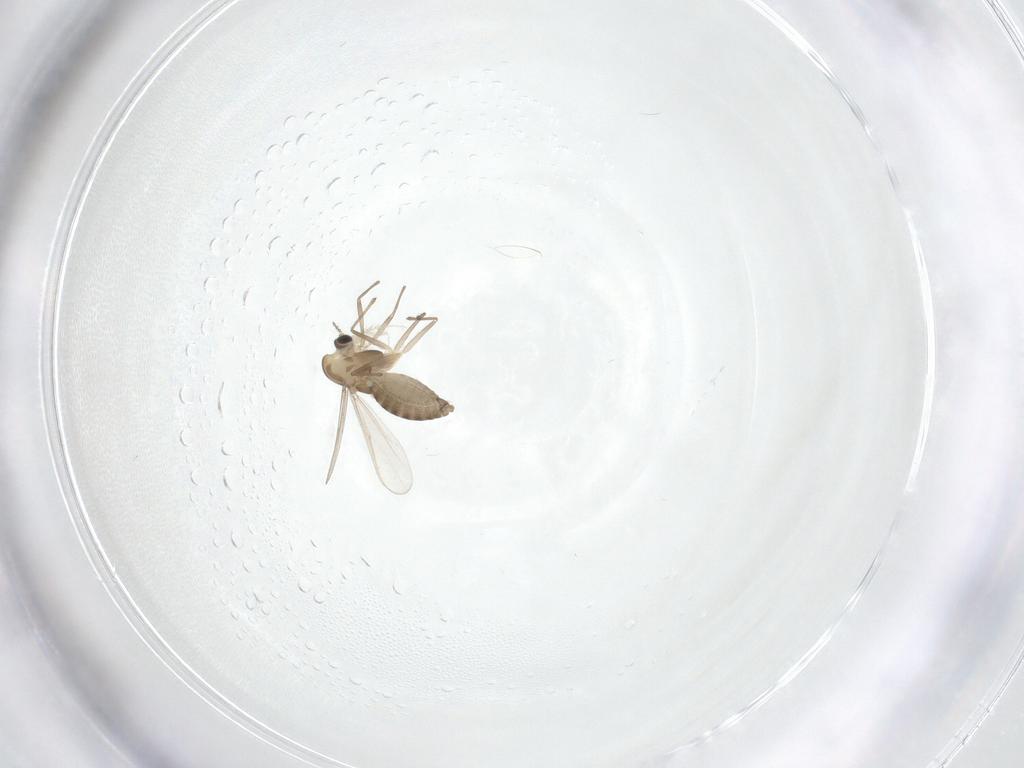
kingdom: Animalia
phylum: Arthropoda
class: Insecta
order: Diptera
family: Chironomidae
